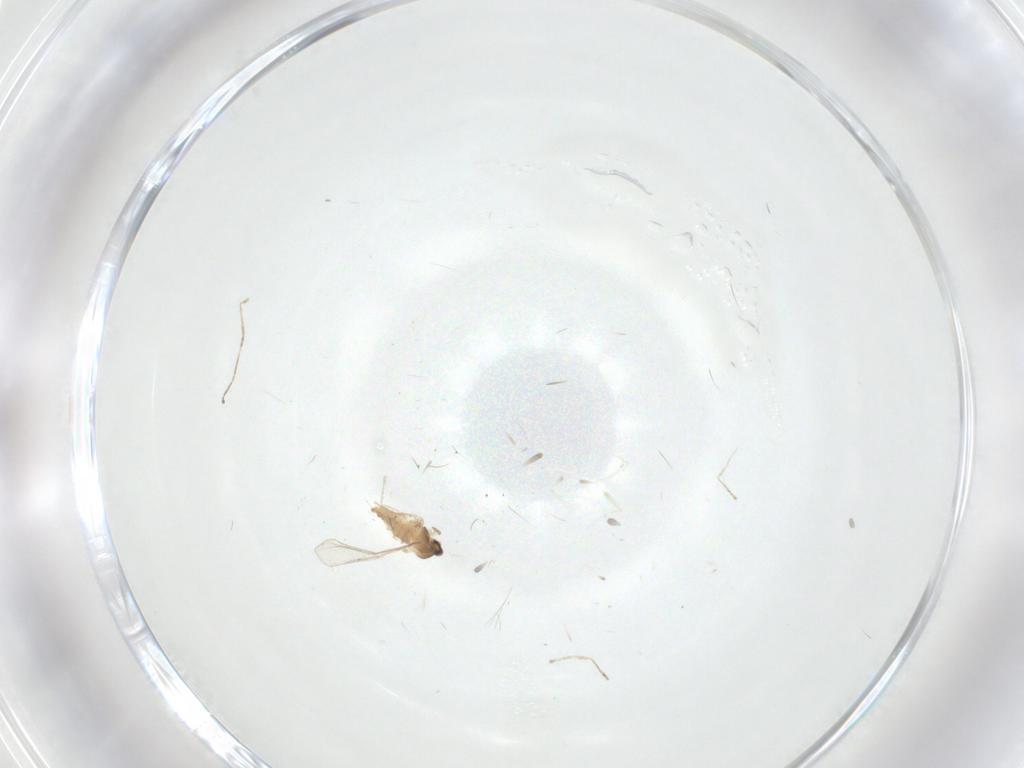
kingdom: Animalia
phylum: Arthropoda
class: Insecta
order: Diptera
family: Cecidomyiidae
